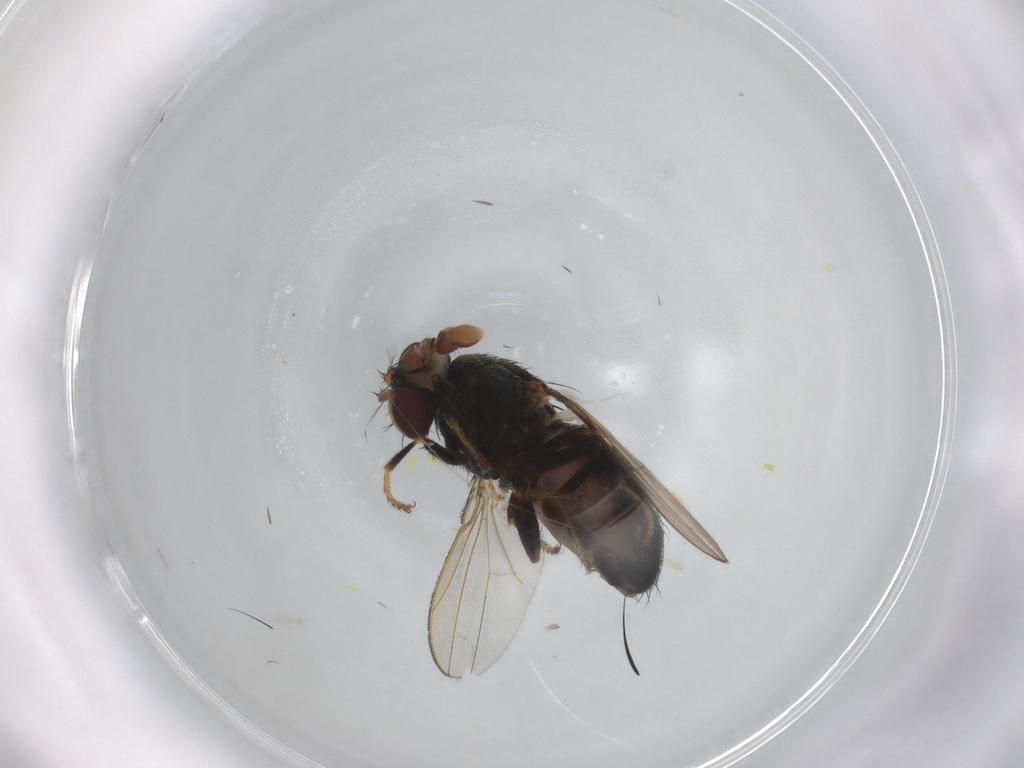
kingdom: Animalia
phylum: Arthropoda
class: Insecta
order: Diptera
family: Ephydridae
